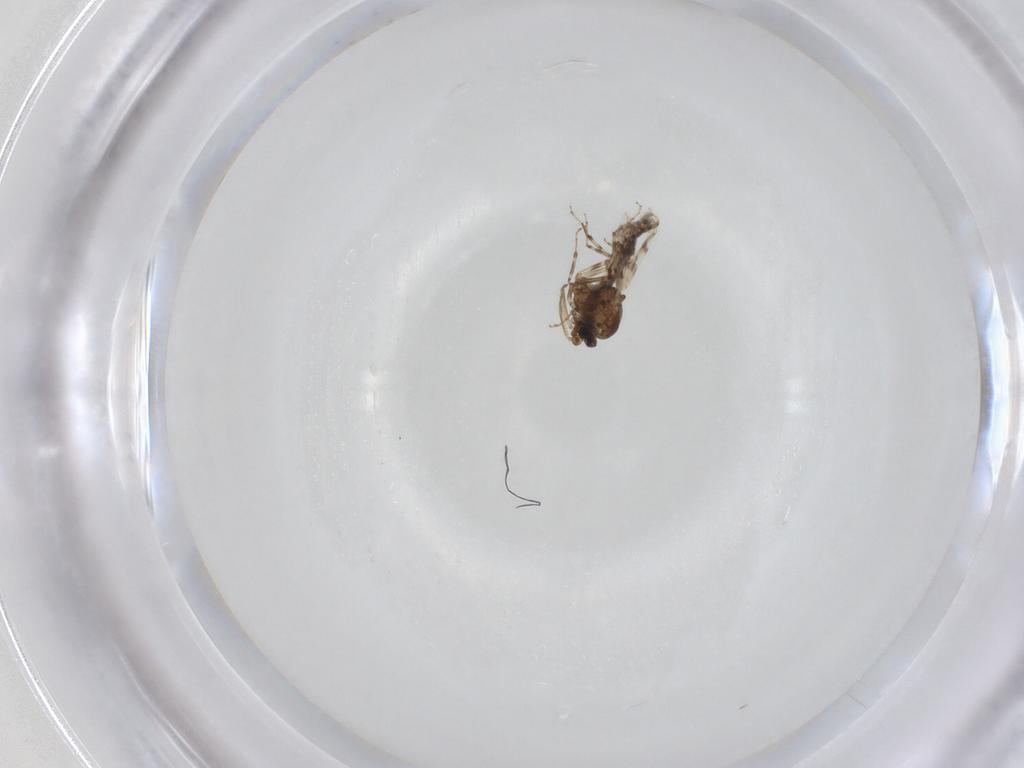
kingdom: Animalia
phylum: Arthropoda
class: Insecta
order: Diptera
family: Ceratopogonidae
